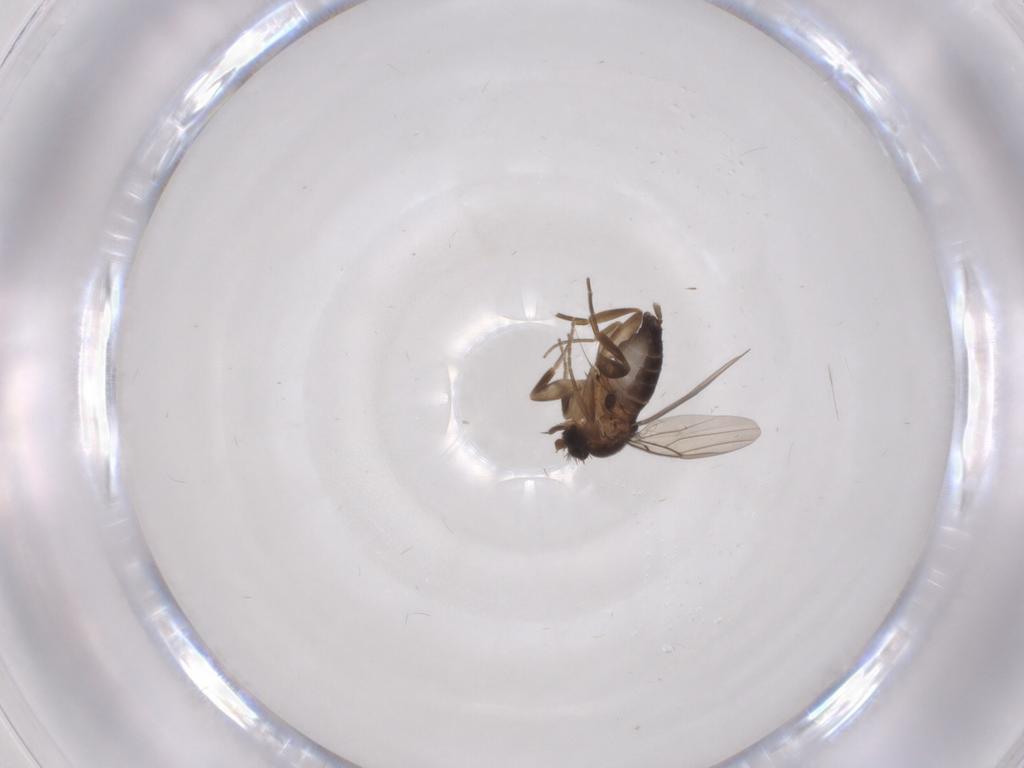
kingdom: Animalia
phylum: Arthropoda
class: Insecta
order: Diptera
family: Phoridae
